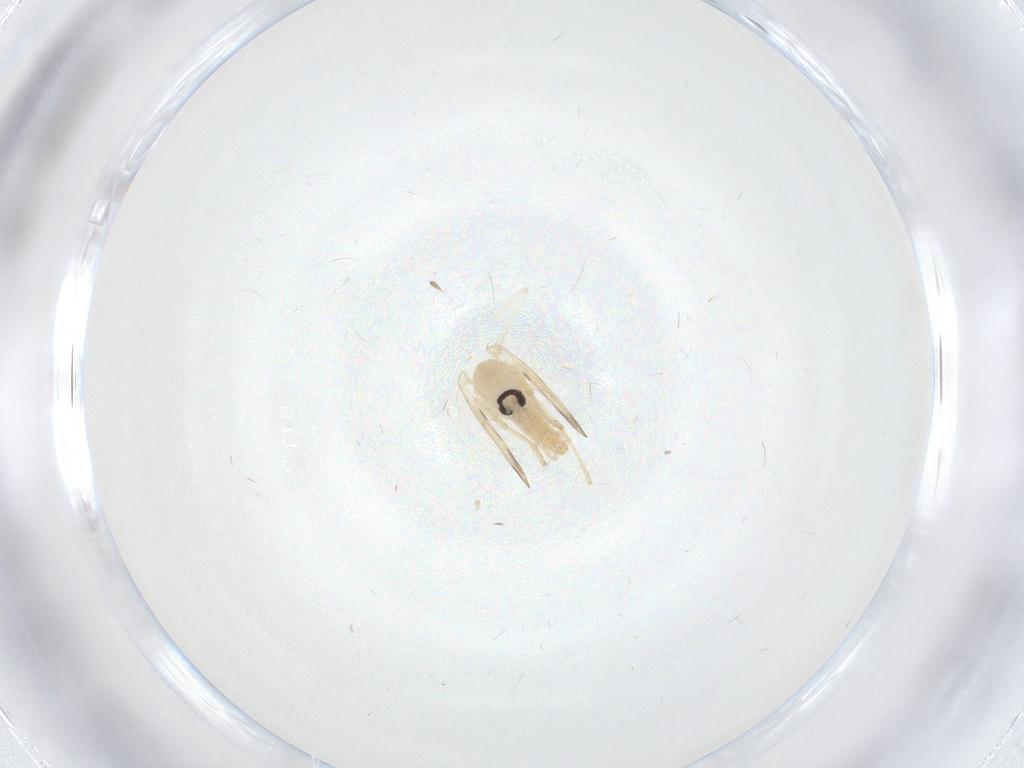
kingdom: Animalia
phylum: Arthropoda
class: Insecta
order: Diptera
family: Psychodidae
